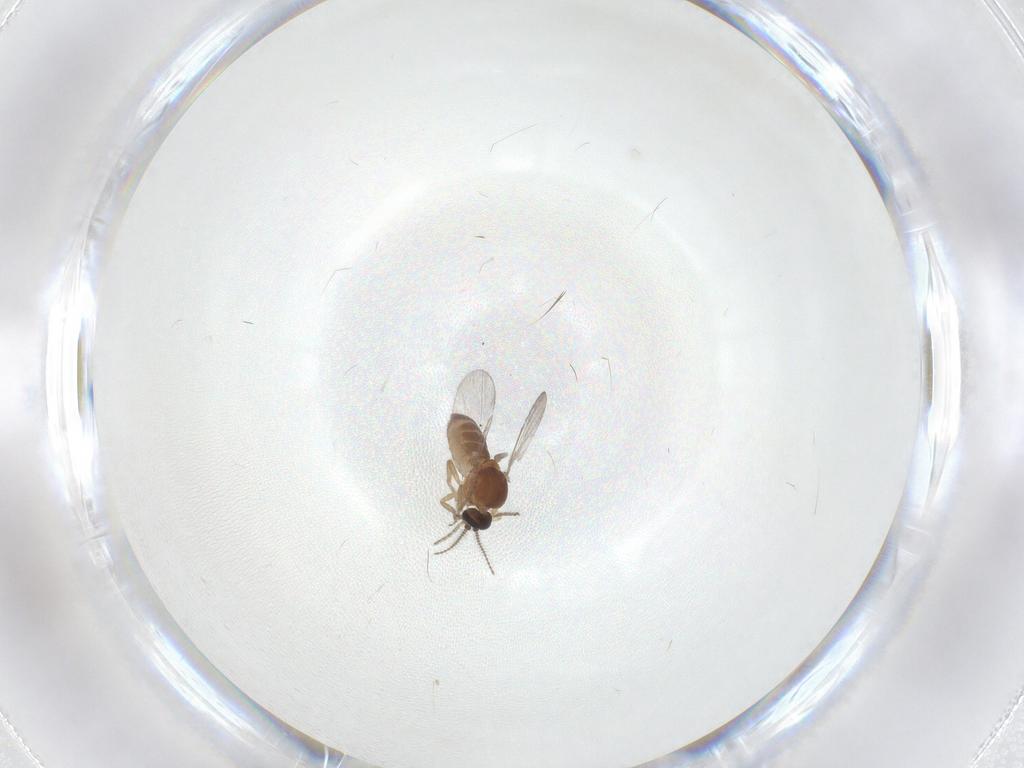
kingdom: Animalia
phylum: Arthropoda
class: Insecta
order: Diptera
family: Ceratopogonidae
